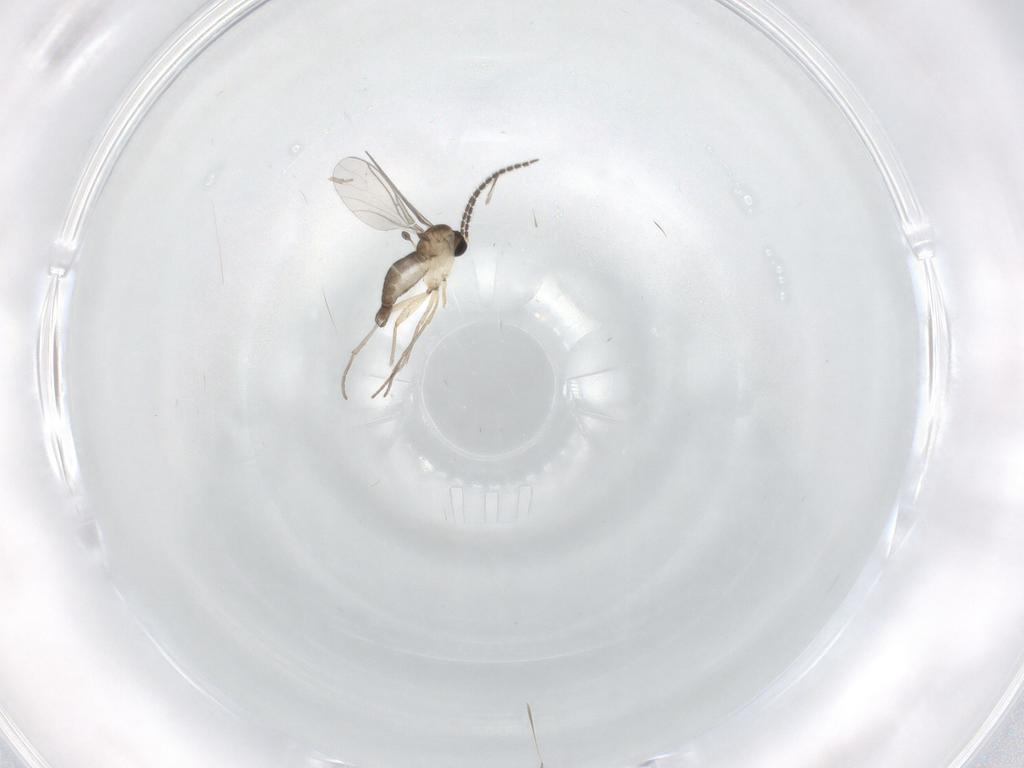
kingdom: Animalia
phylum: Arthropoda
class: Insecta
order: Diptera
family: Sciaridae
